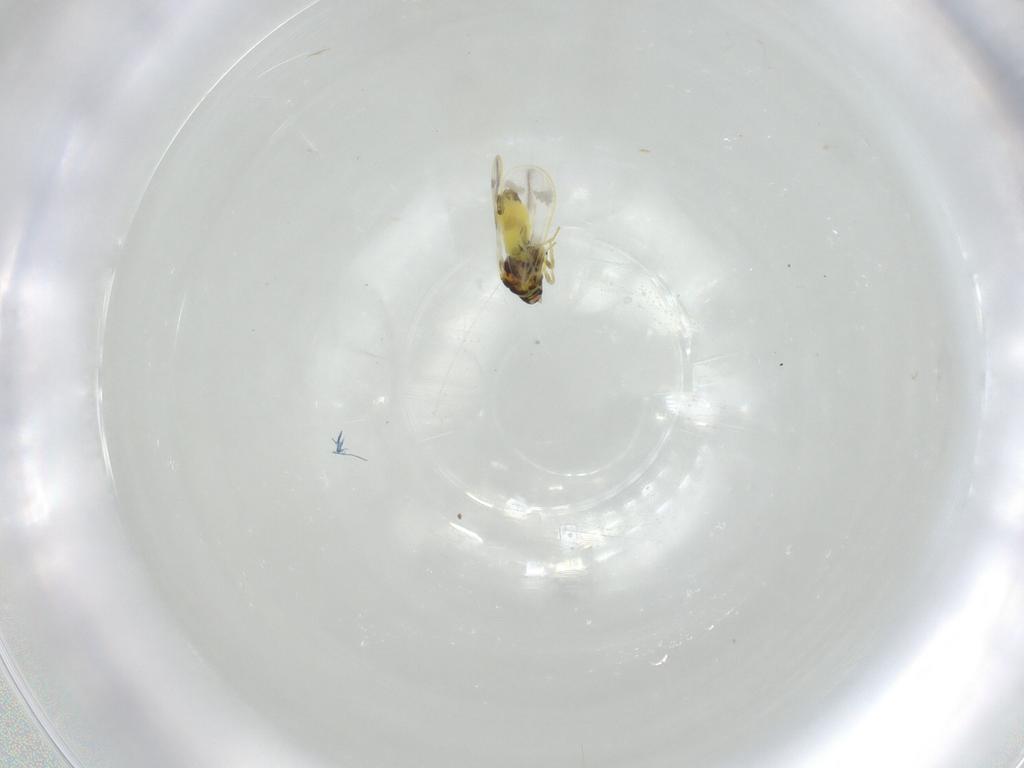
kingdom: Animalia
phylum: Arthropoda
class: Insecta
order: Hemiptera
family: Aleyrodidae
